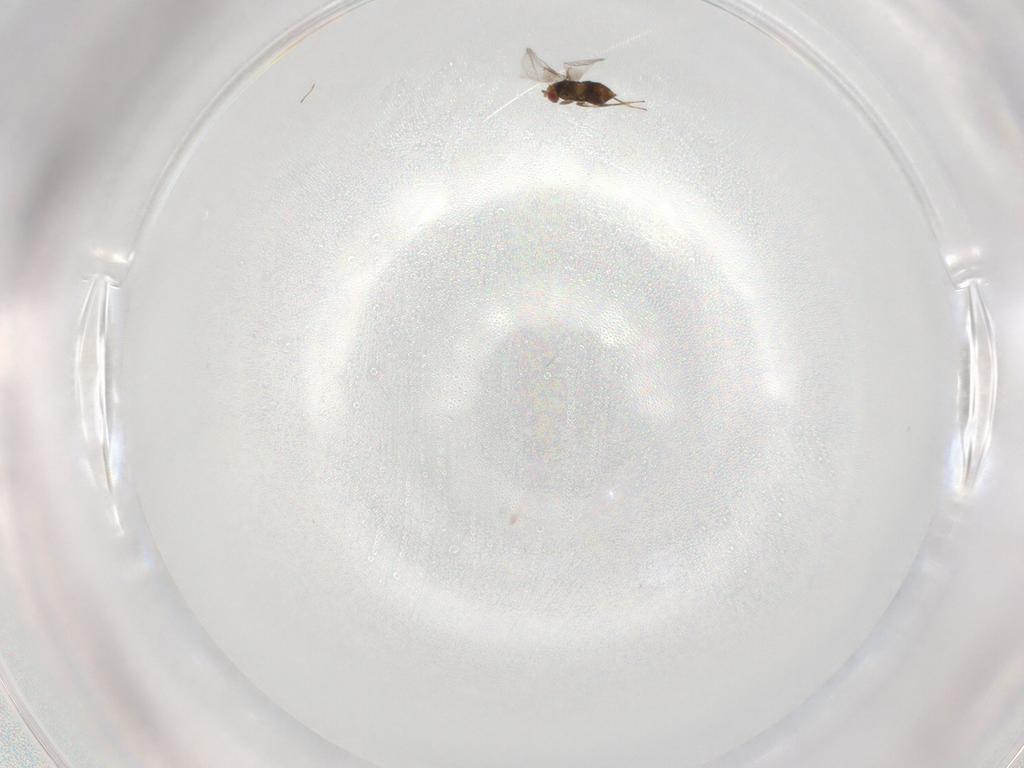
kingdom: Animalia
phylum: Arthropoda
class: Insecta
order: Hymenoptera
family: Trichogrammatidae
